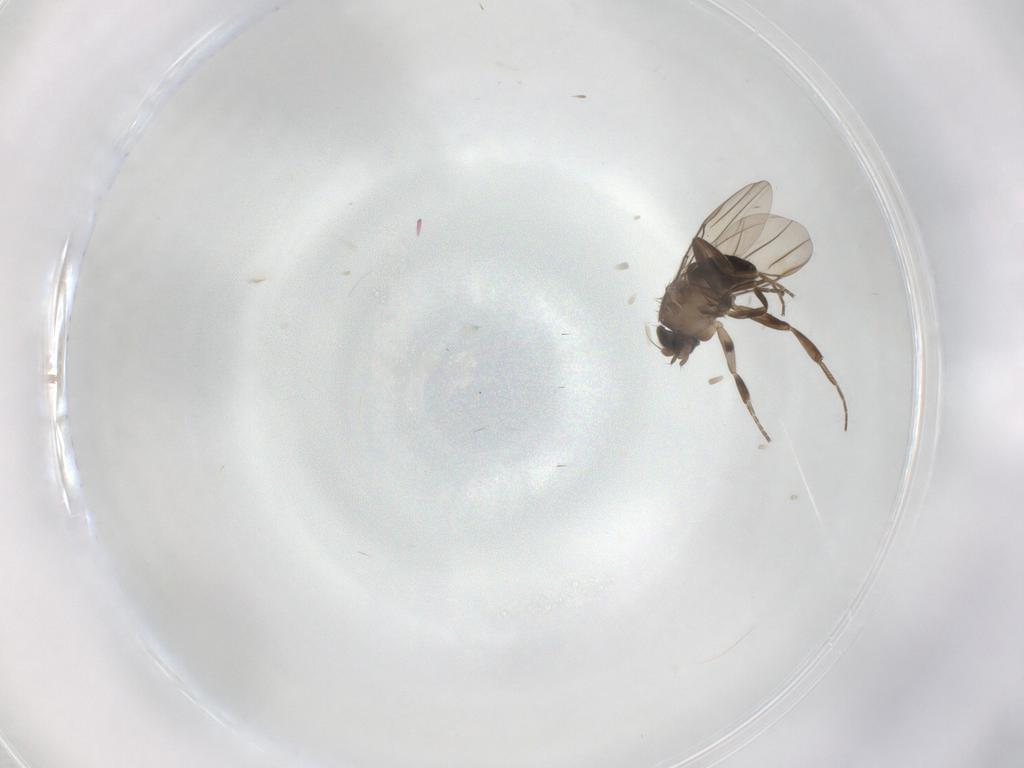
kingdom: Animalia
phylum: Arthropoda
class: Insecta
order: Diptera
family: Phoridae
